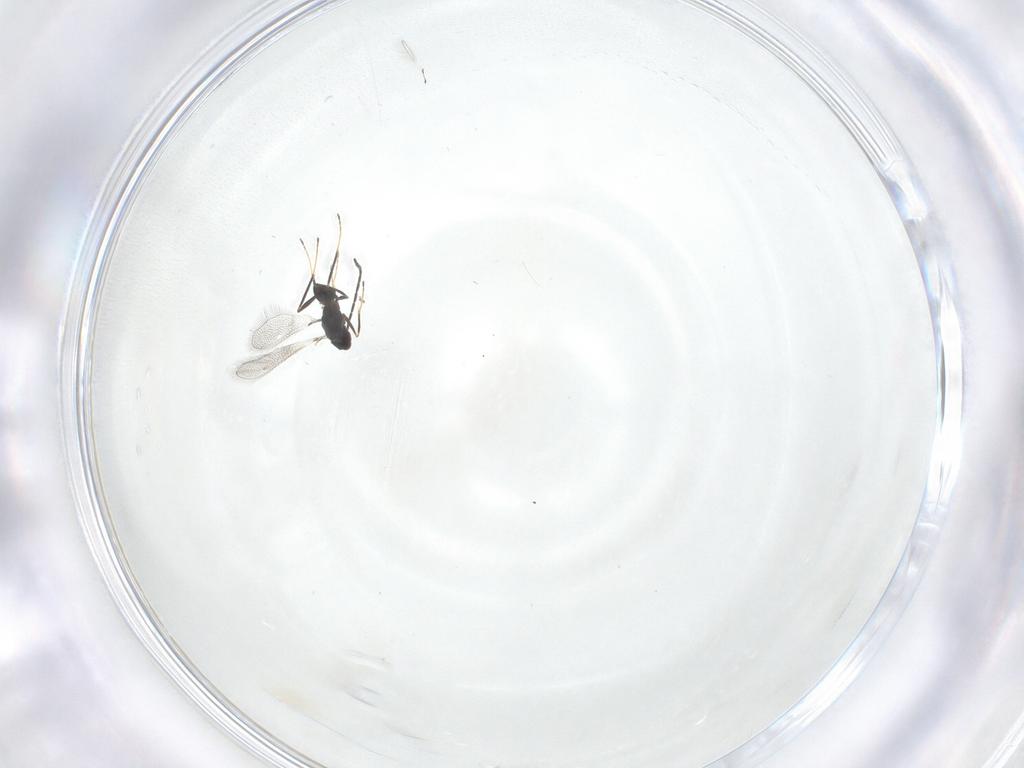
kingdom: Animalia
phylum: Arthropoda
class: Insecta
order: Hymenoptera
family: Mymaridae
